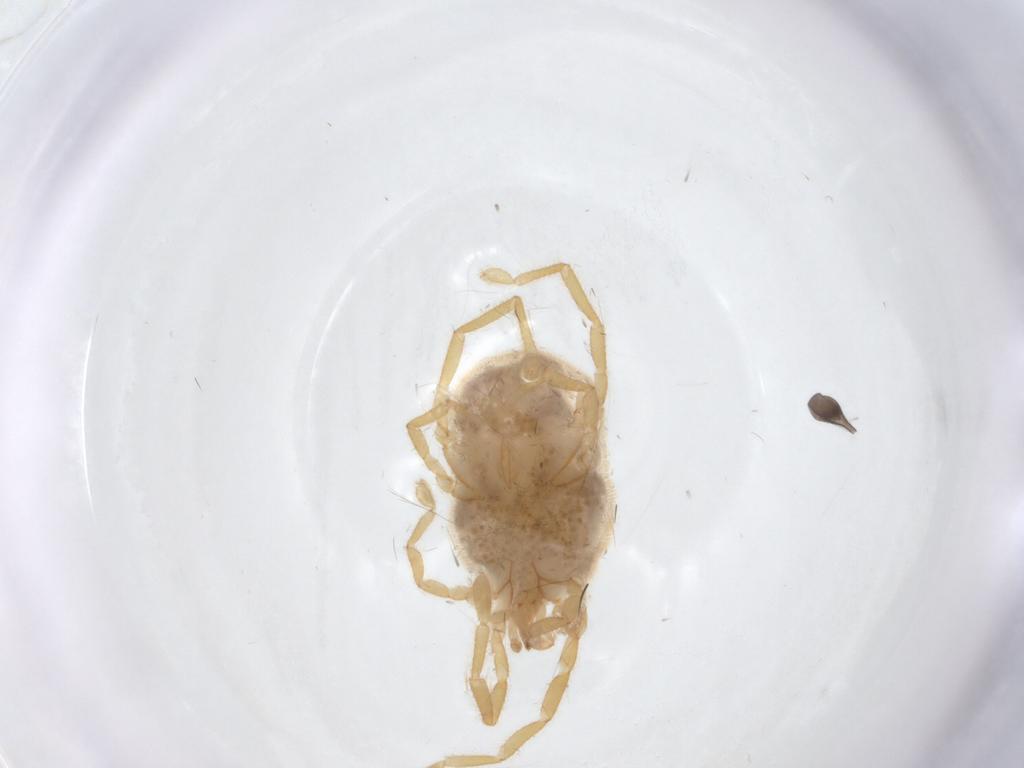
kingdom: Animalia
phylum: Arthropoda
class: Arachnida
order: Trombidiformes
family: Erythraeidae
